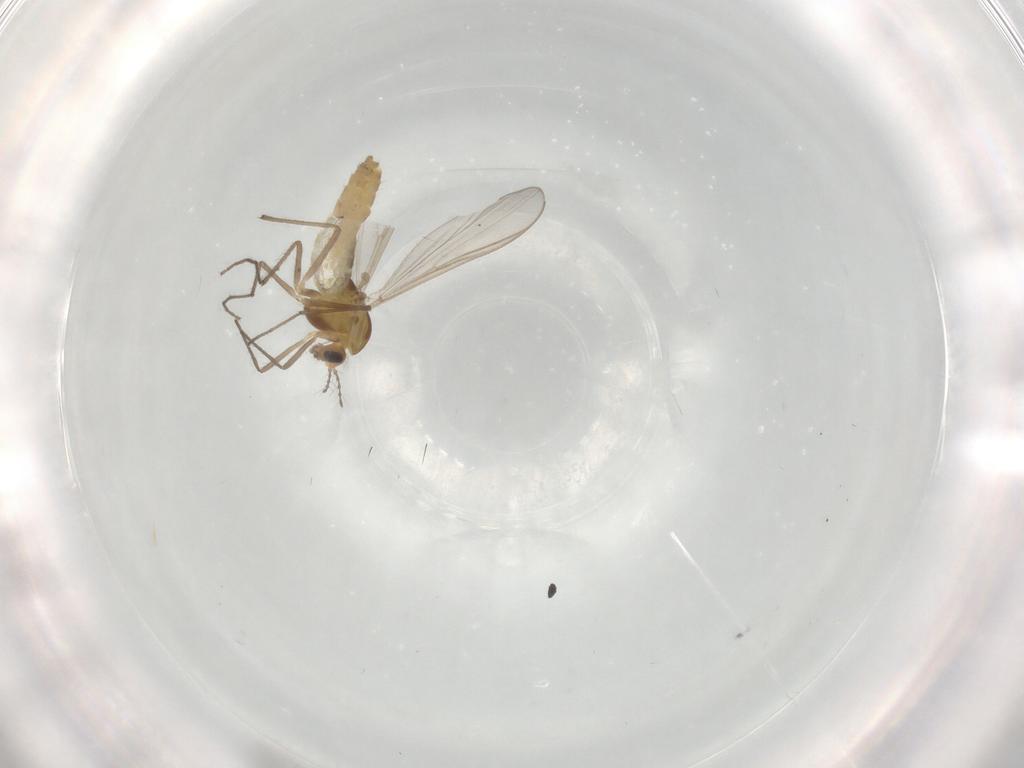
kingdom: Animalia
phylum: Arthropoda
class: Insecta
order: Diptera
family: Chironomidae
